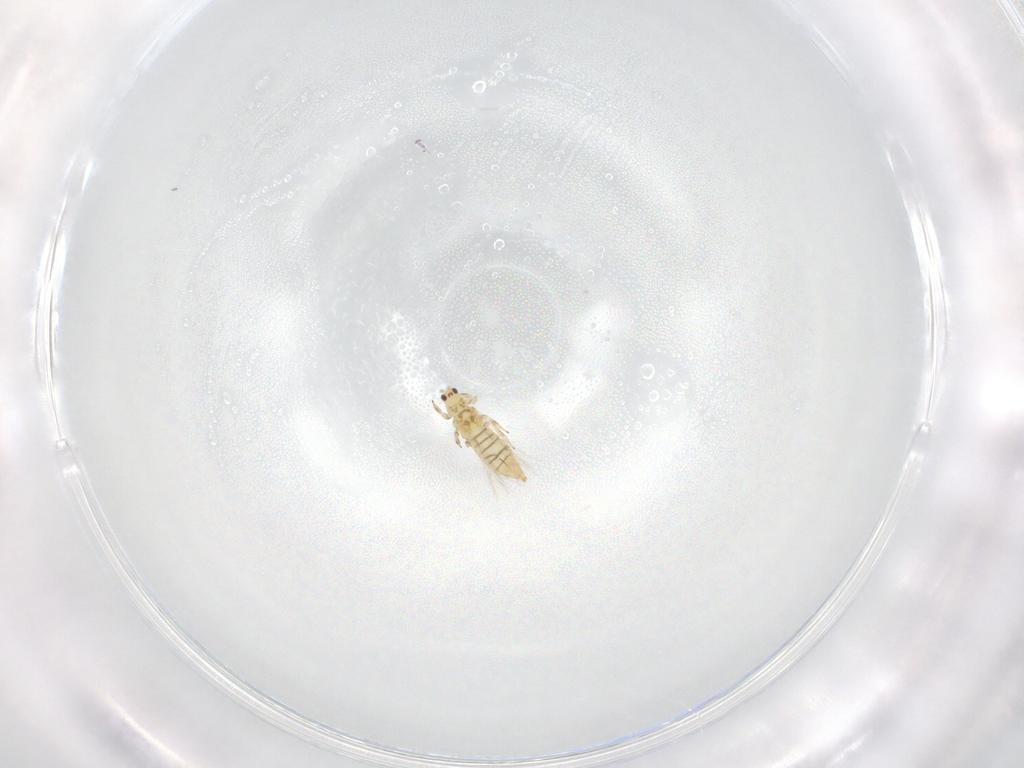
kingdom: Animalia
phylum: Arthropoda
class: Insecta
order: Thysanoptera
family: Thripidae
